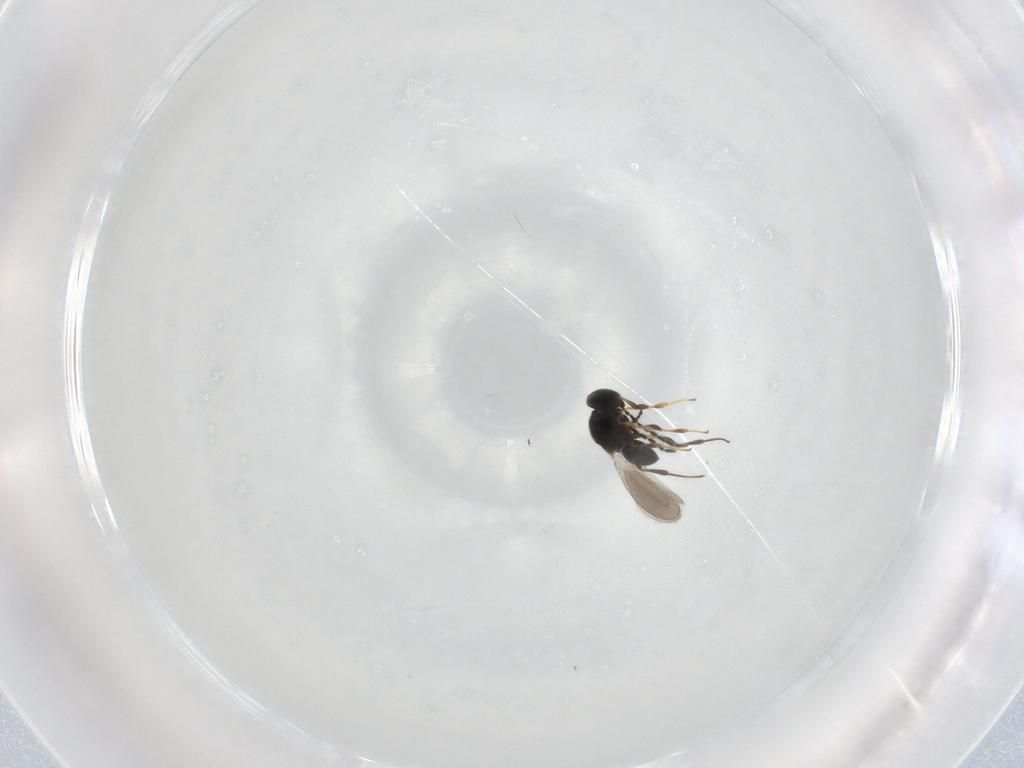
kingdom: Animalia
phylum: Arthropoda
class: Insecta
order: Hymenoptera
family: Platygastridae
